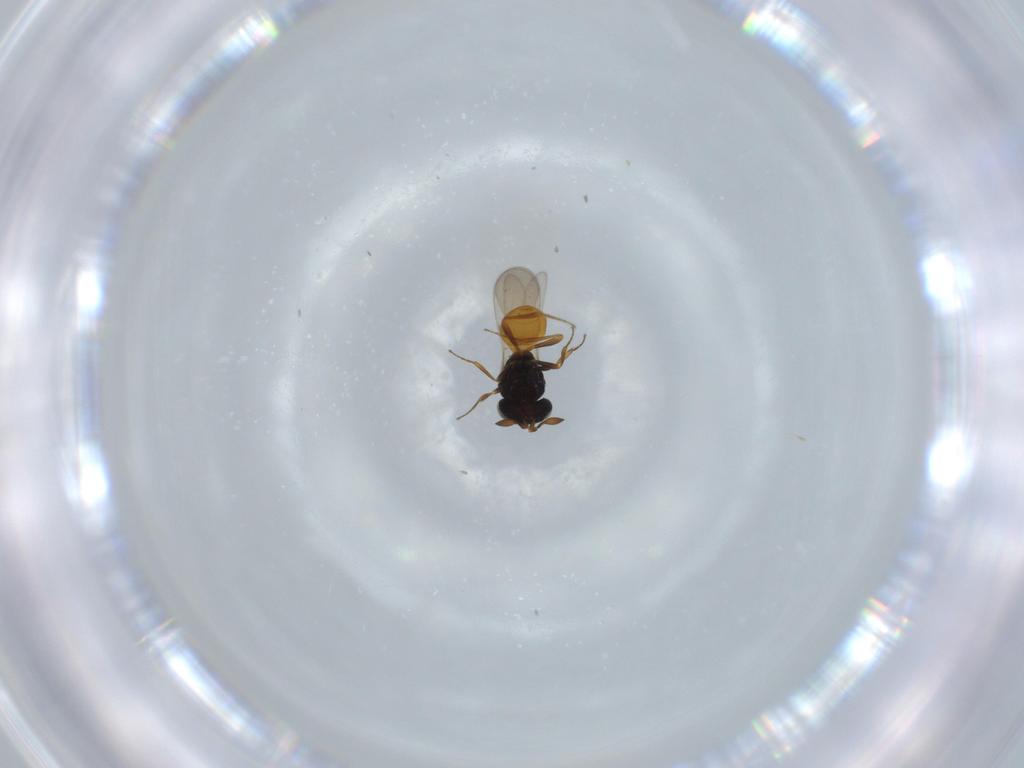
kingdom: Animalia
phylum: Arthropoda
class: Insecta
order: Hymenoptera
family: Scelionidae
